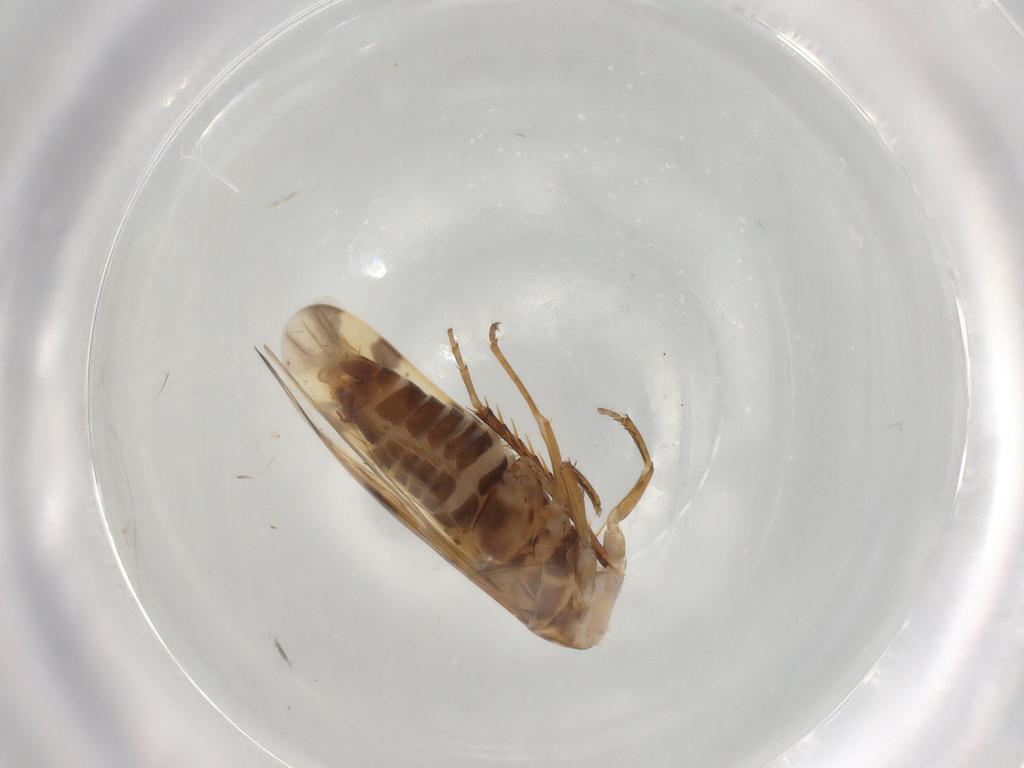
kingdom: Animalia
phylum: Arthropoda
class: Insecta
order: Hemiptera
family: Cicadellidae
